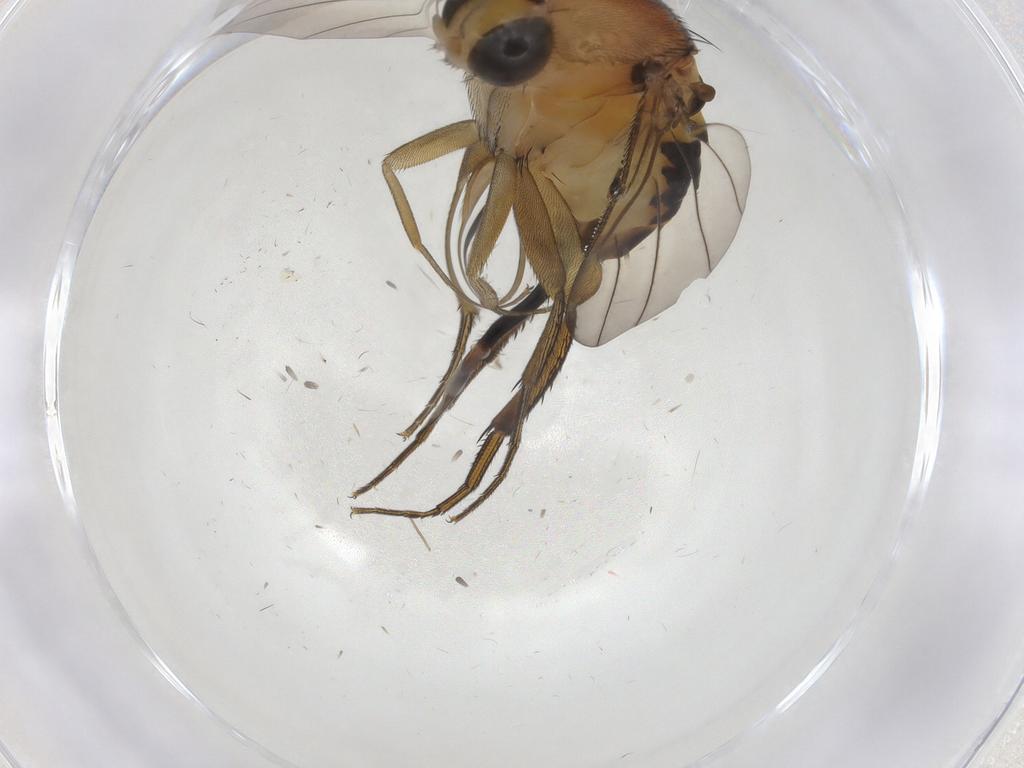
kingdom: Animalia
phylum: Arthropoda
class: Insecta
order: Diptera
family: Phoridae
